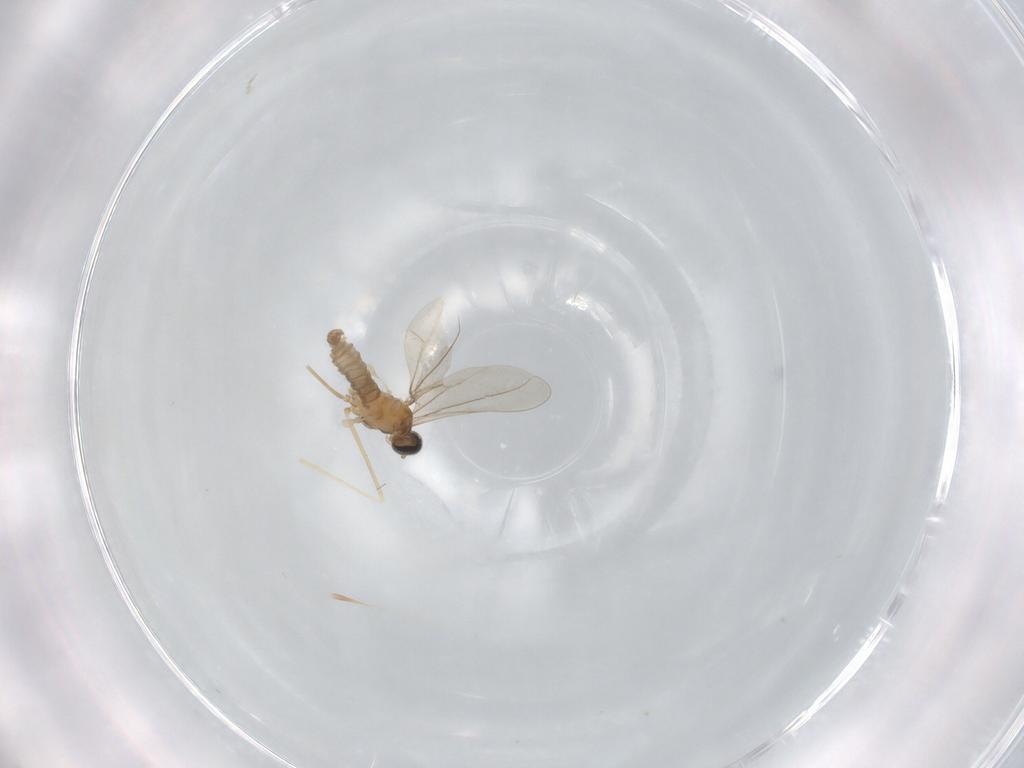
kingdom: Animalia
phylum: Arthropoda
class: Insecta
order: Diptera
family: Cecidomyiidae
